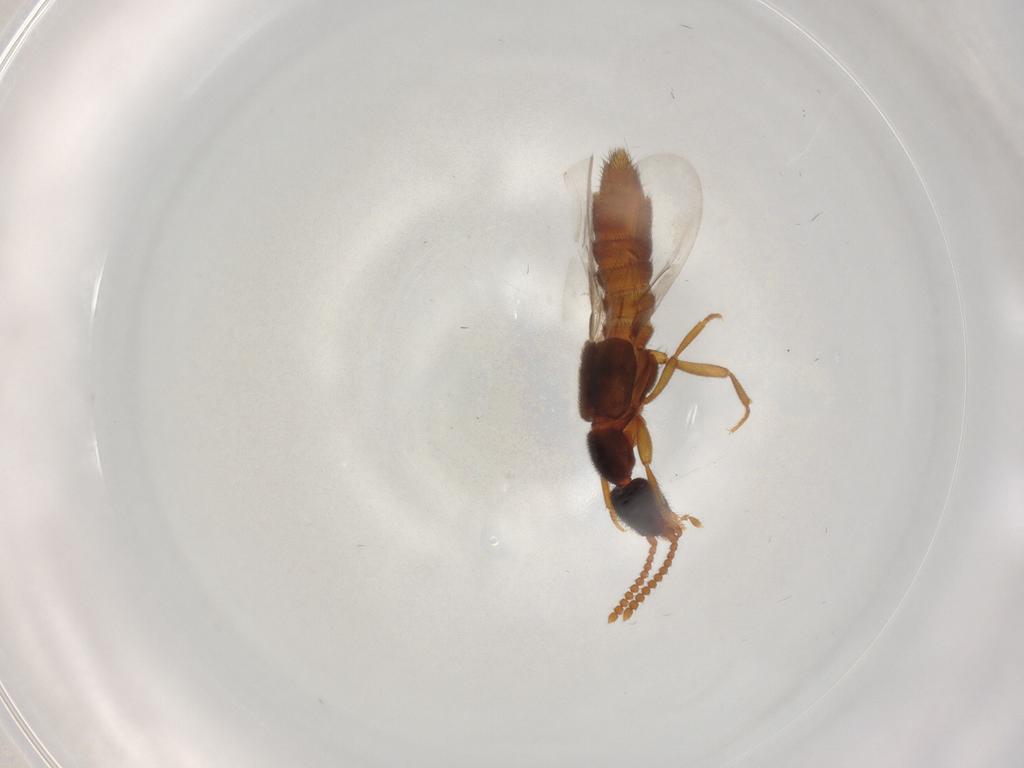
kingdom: Animalia
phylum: Arthropoda
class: Insecta
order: Coleoptera
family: Staphylinidae
